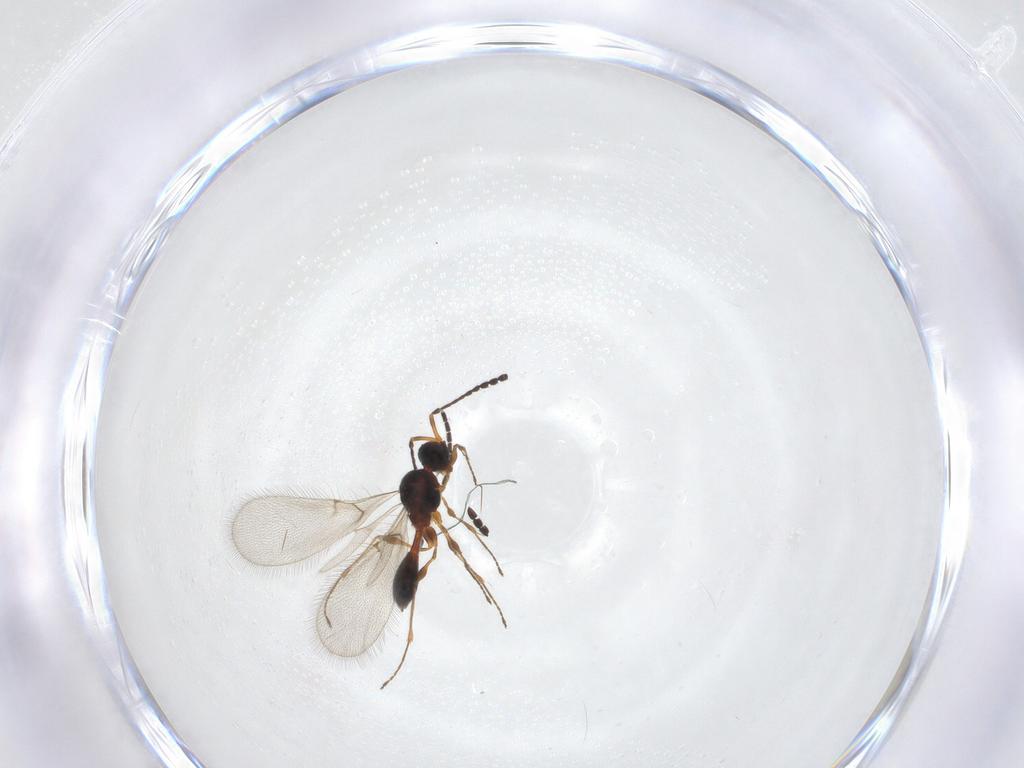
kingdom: Animalia
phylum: Arthropoda
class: Insecta
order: Hymenoptera
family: Diapriidae
